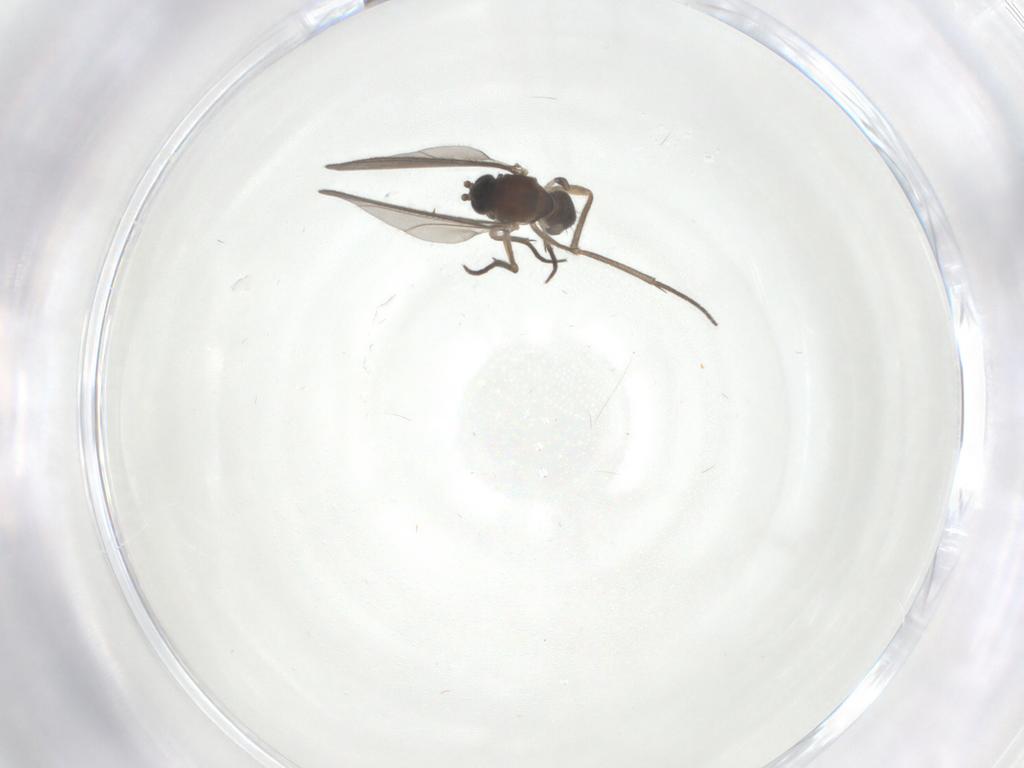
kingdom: Animalia
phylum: Arthropoda
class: Insecta
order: Diptera
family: Sciaridae
